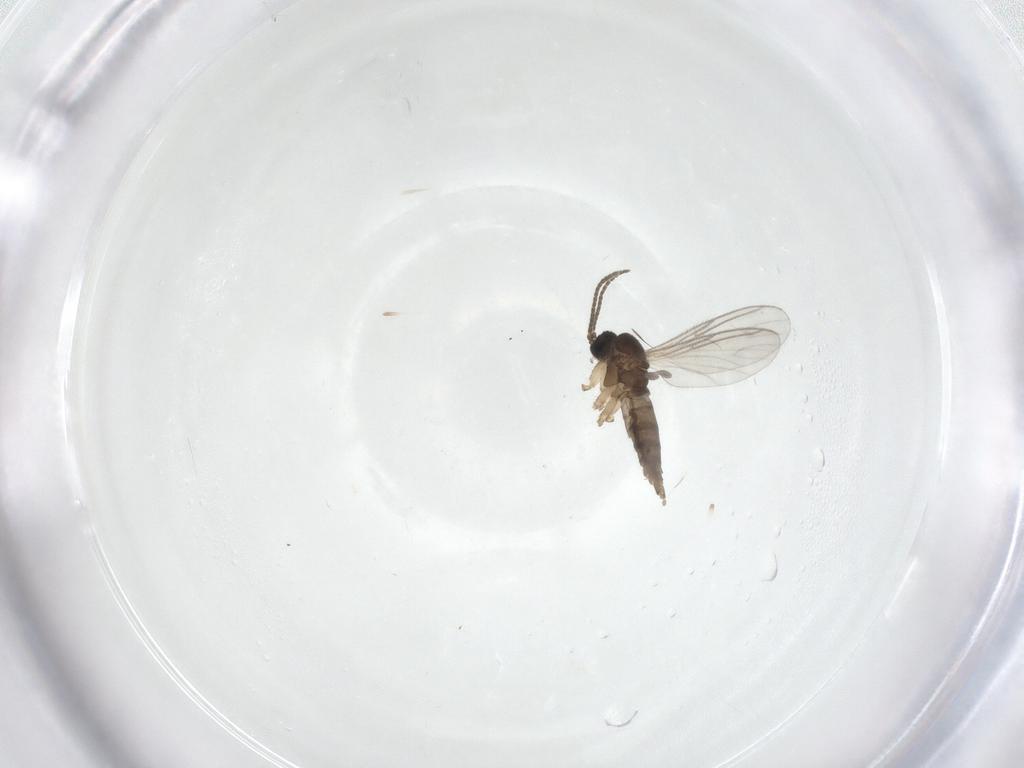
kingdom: Animalia
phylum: Arthropoda
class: Insecta
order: Diptera
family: Sciaridae
